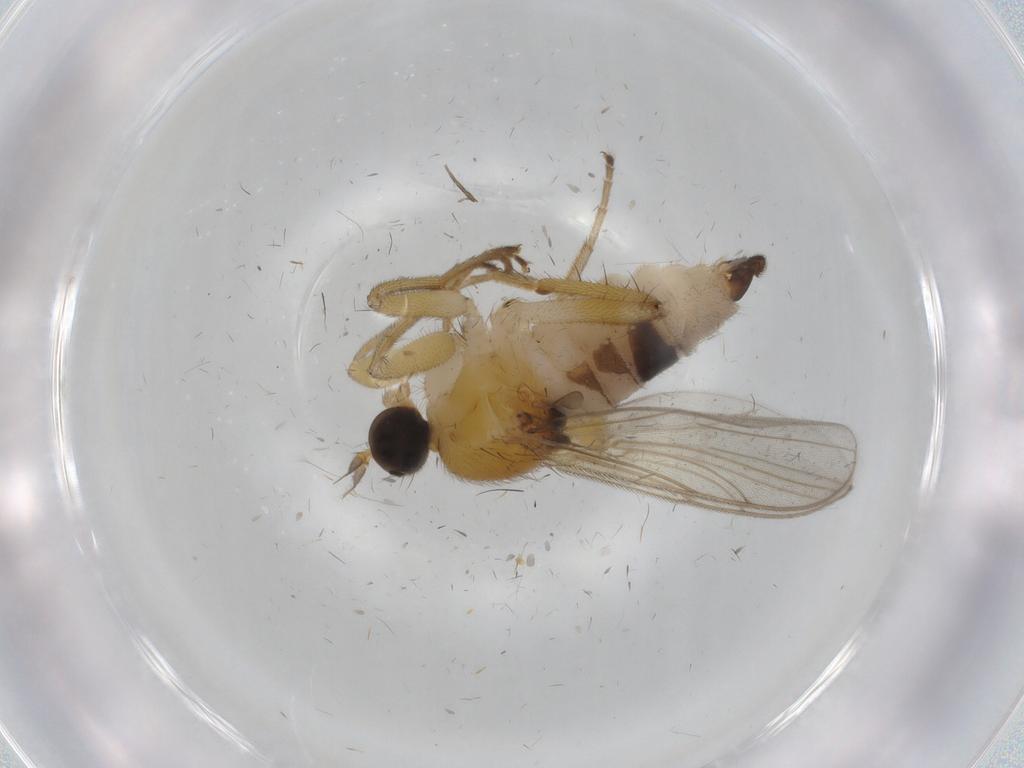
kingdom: Animalia
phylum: Arthropoda
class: Insecta
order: Diptera
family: Hybotidae
